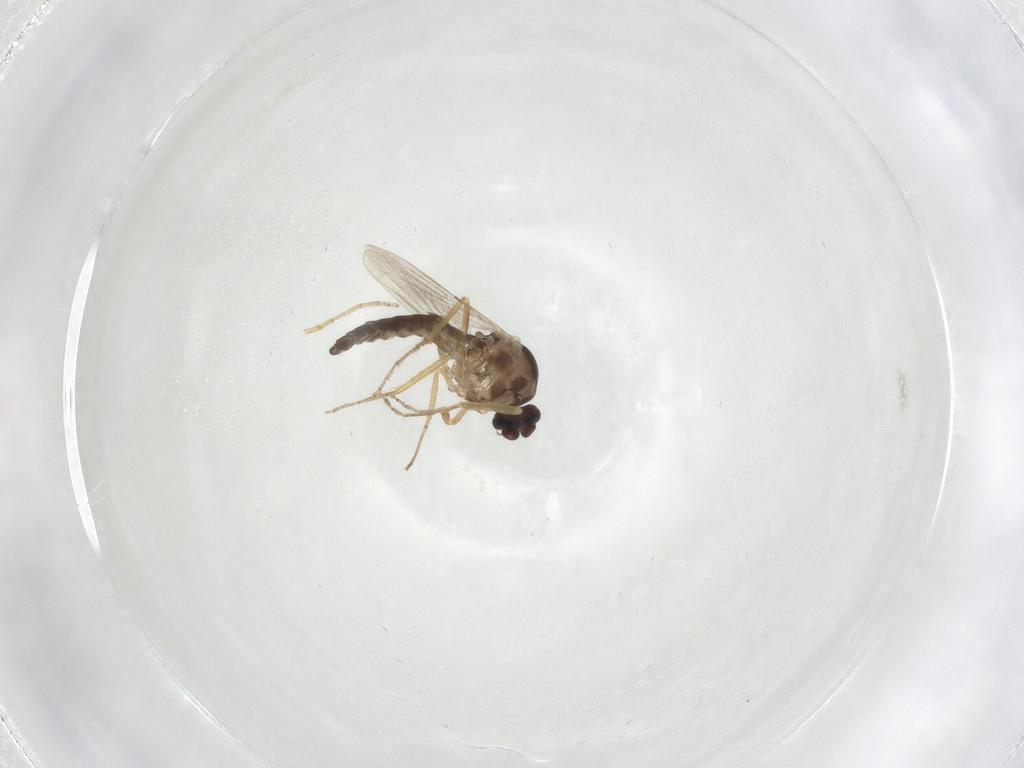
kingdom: Animalia
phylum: Arthropoda
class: Insecta
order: Diptera
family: Ceratopogonidae
